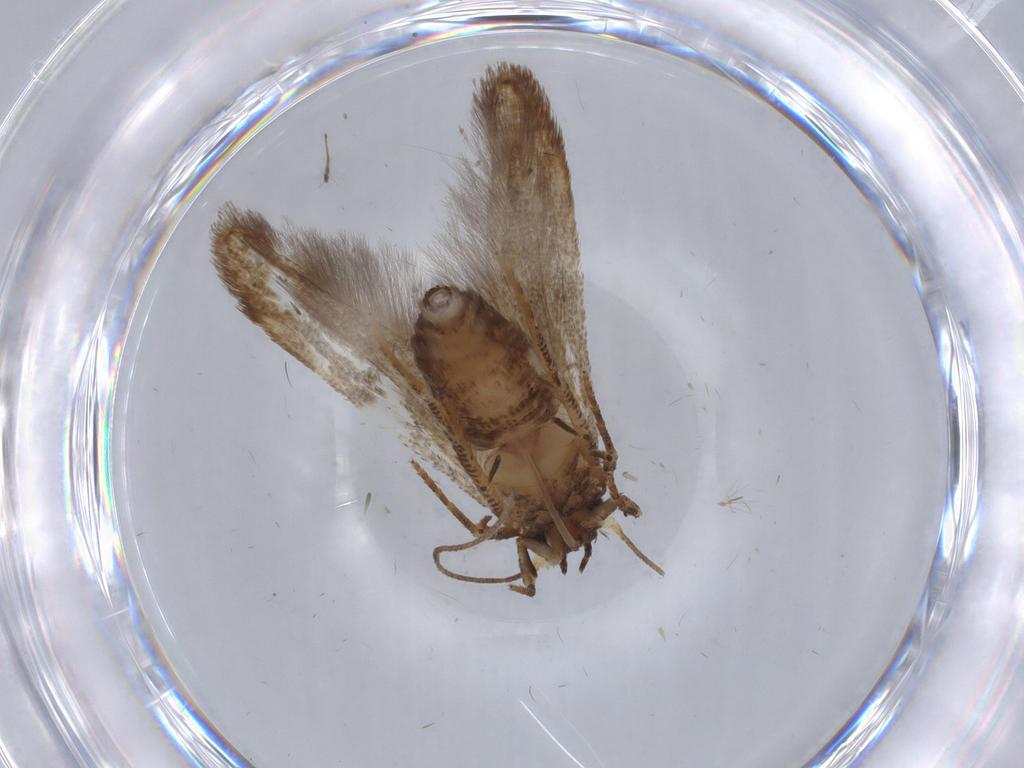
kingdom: Animalia
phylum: Arthropoda
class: Insecta
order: Lepidoptera
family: Blastobasidae
